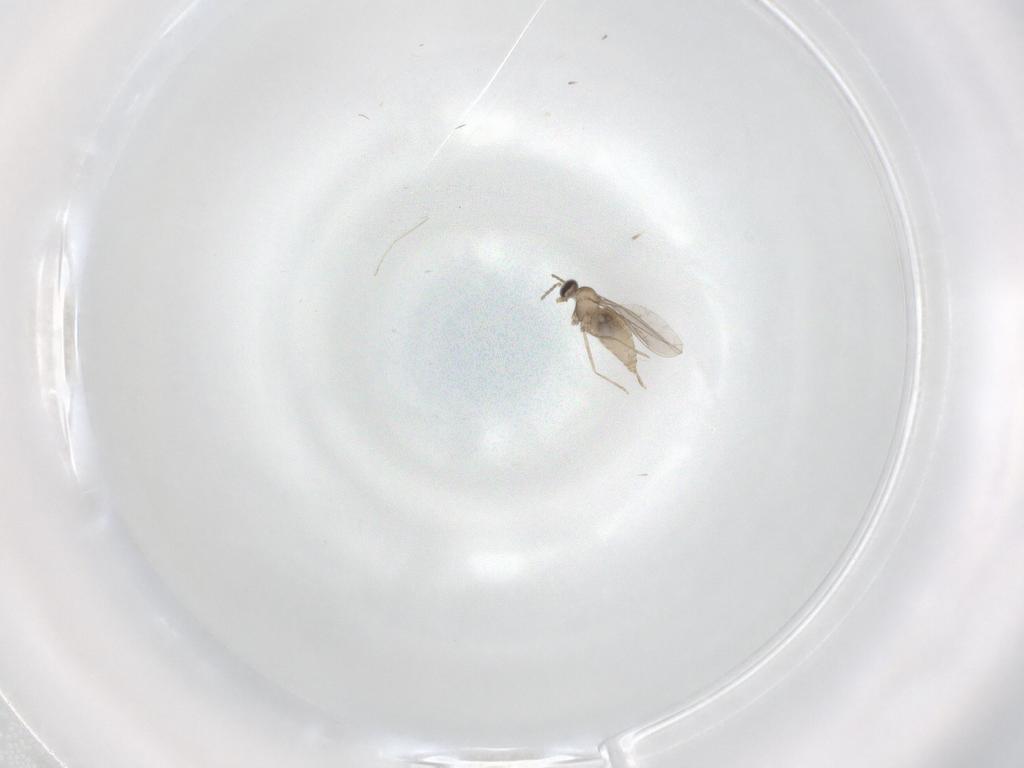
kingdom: Animalia
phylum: Arthropoda
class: Insecta
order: Diptera
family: Chironomidae
